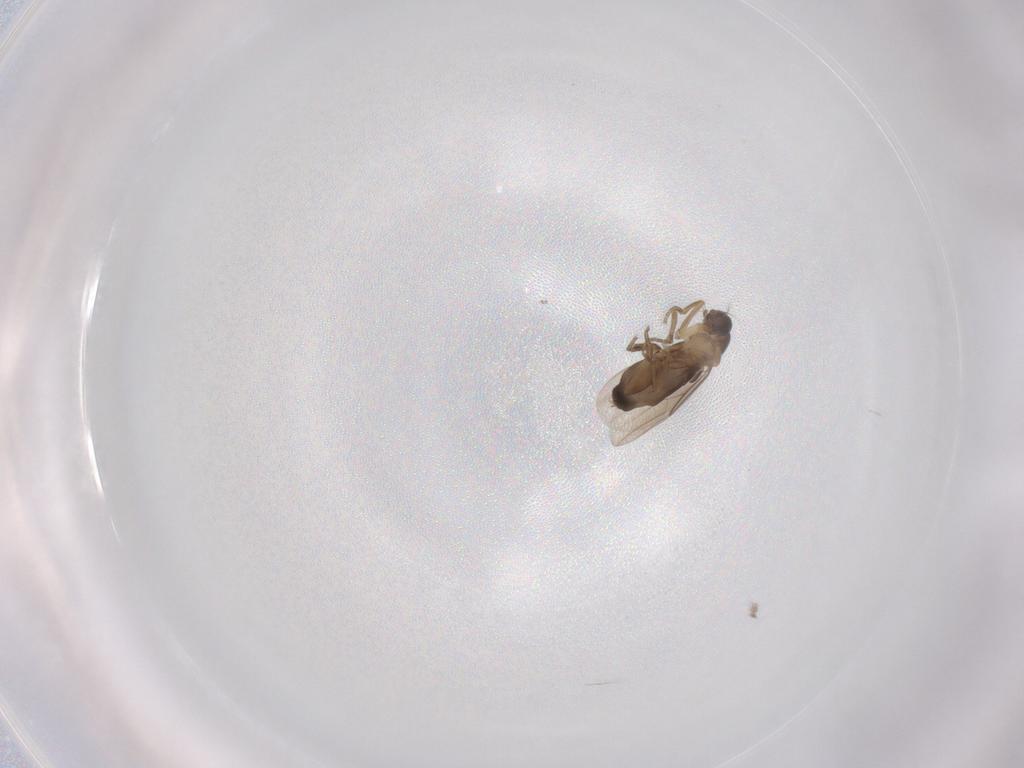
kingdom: Animalia
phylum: Arthropoda
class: Insecta
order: Diptera
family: Phoridae
